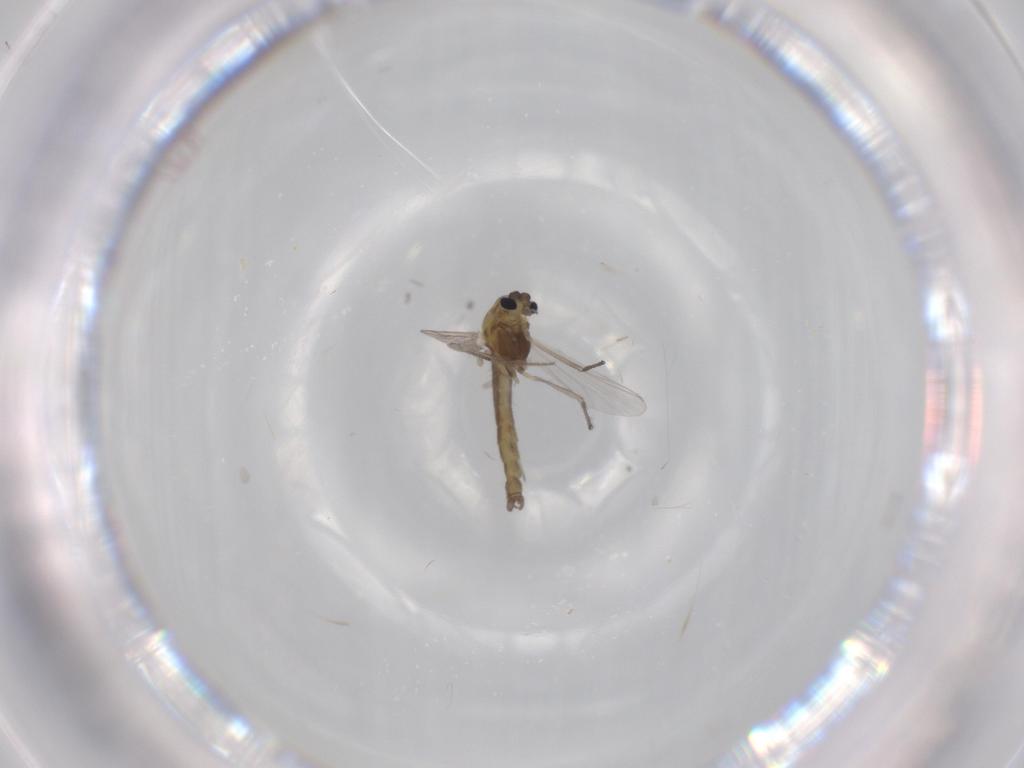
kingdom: Animalia
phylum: Arthropoda
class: Insecta
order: Diptera
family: Chironomidae
